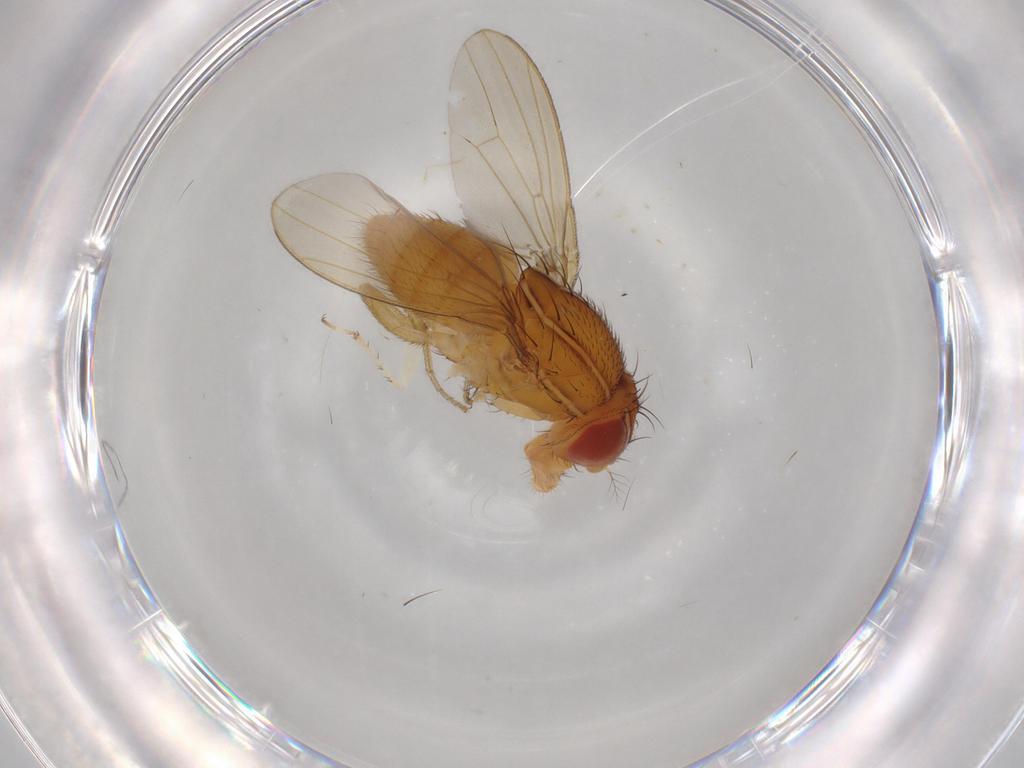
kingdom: Animalia
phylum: Arthropoda
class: Insecta
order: Diptera
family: Drosophilidae
